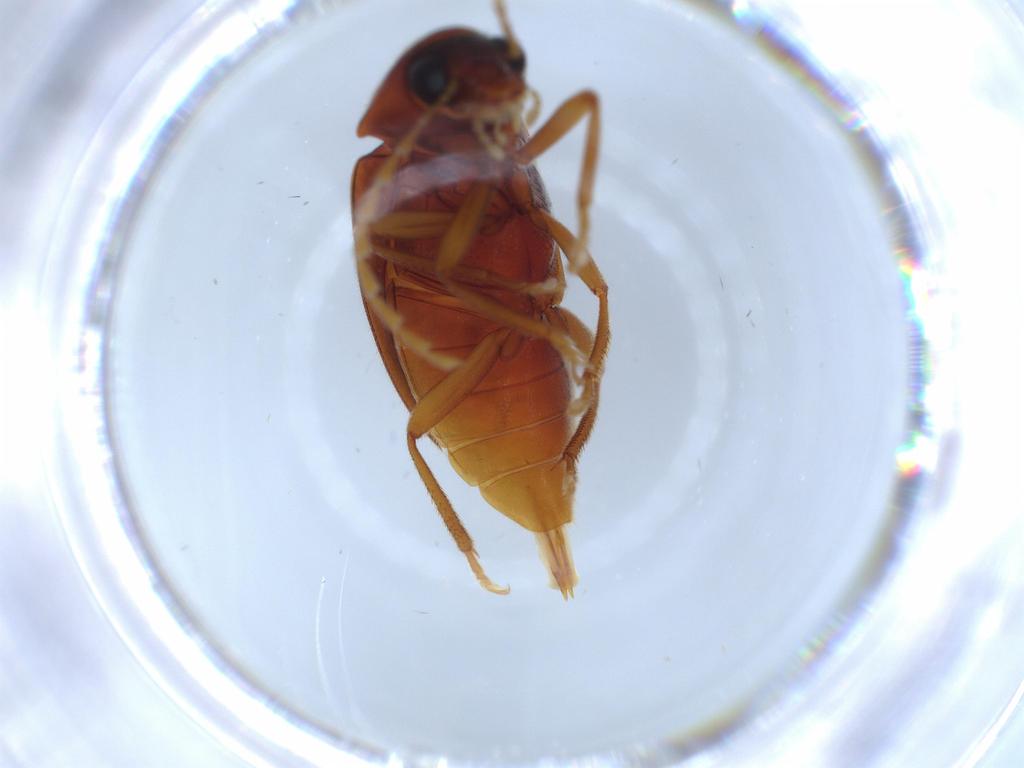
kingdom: Animalia
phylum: Arthropoda
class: Insecta
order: Coleoptera
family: Ptilodactylidae
